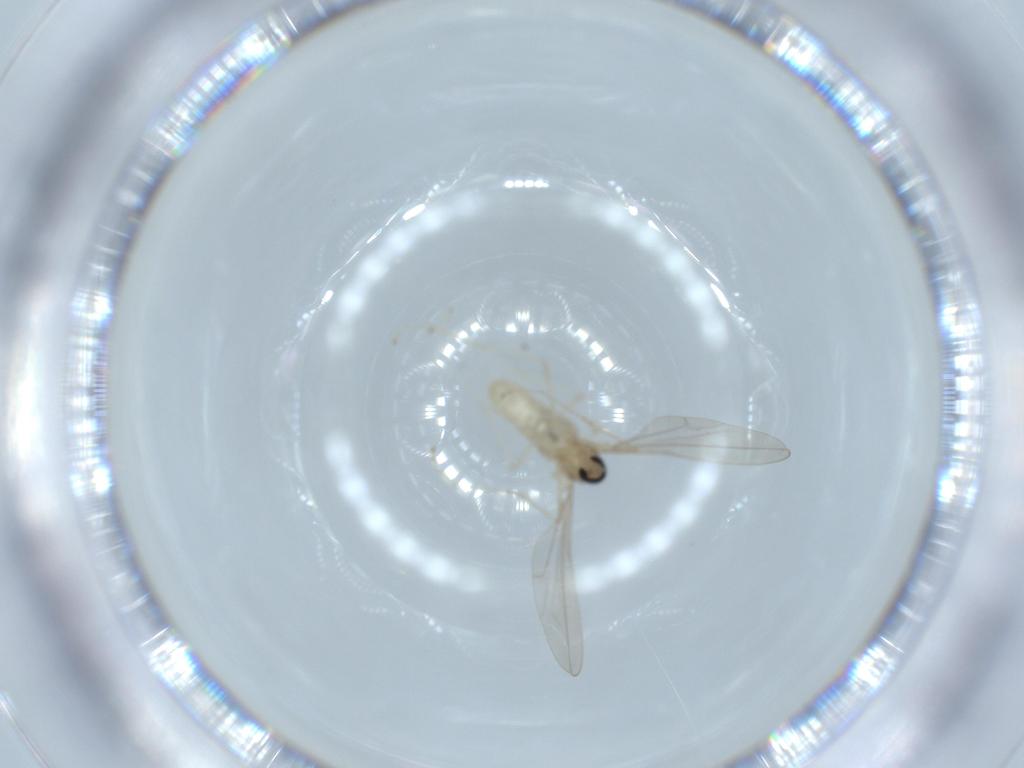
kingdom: Animalia
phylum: Arthropoda
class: Insecta
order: Diptera
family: Cecidomyiidae
